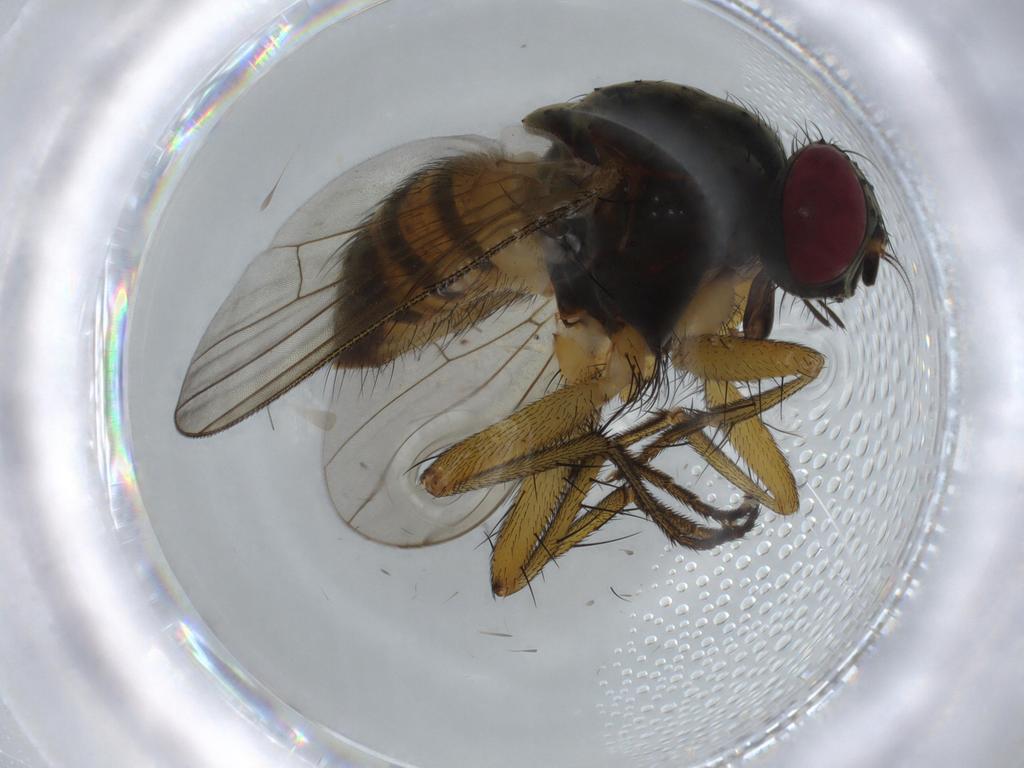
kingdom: Animalia
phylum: Arthropoda
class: Insecta
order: Diptera
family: Muscidae
